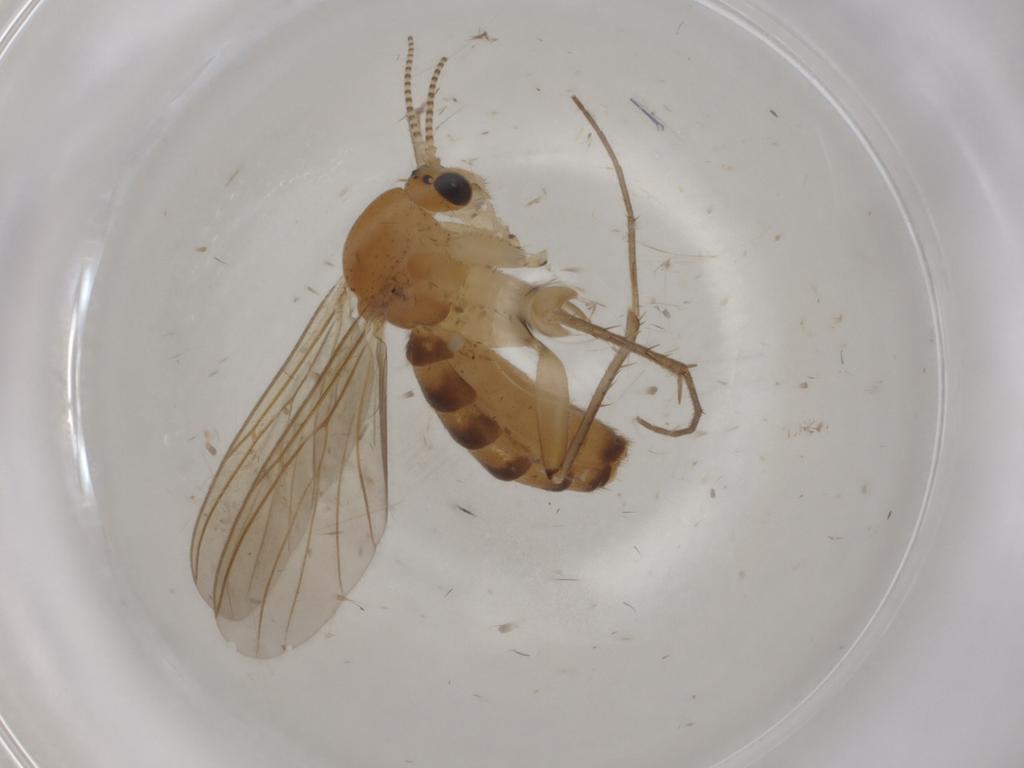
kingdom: Animalia
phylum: Arthropoda
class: Insecta
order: Diptera
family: Mycetophilidae
